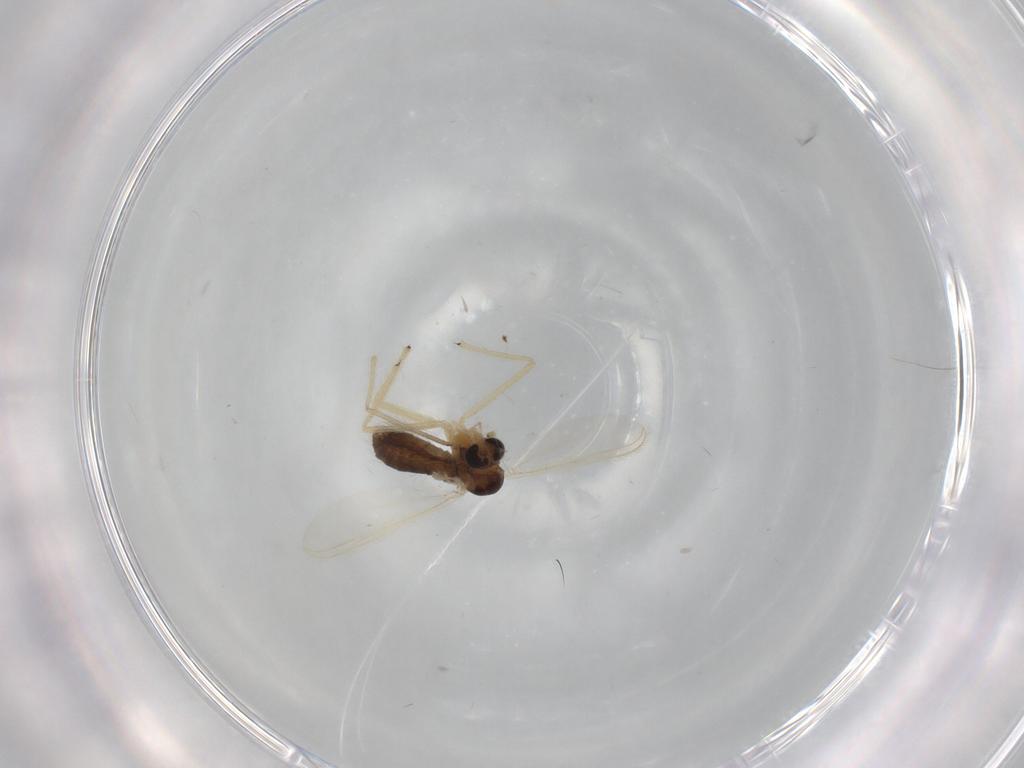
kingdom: Animalia
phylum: Arthropoda
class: Insecta
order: Diptera
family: Chironomidae
